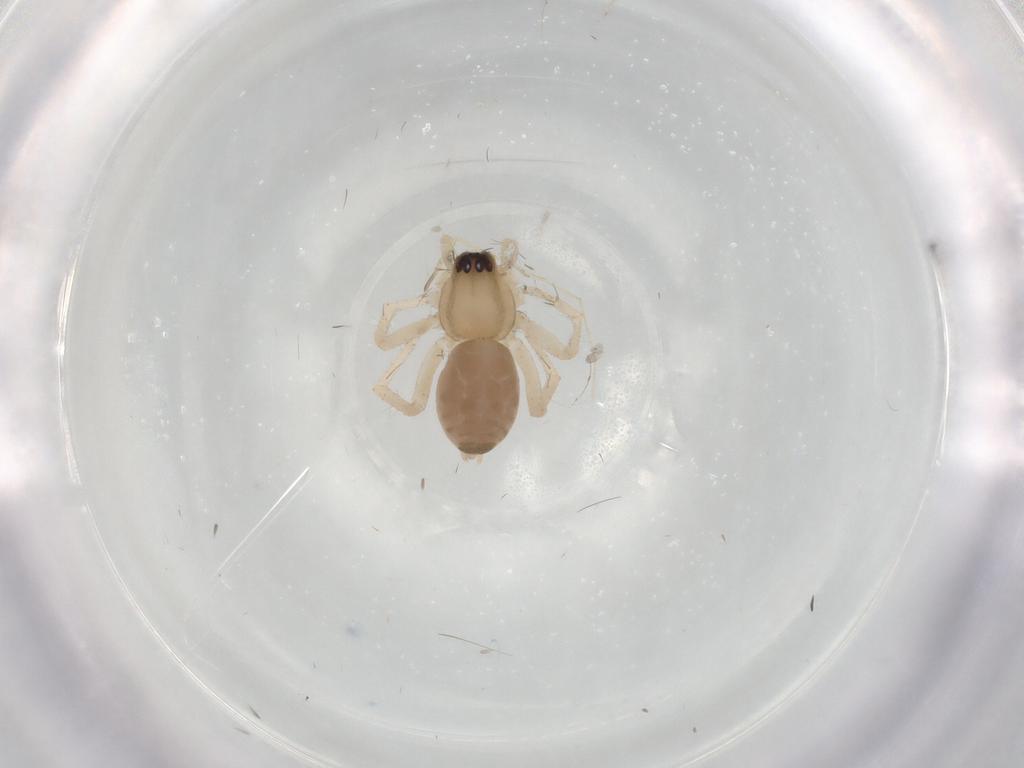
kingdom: Animalia
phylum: Arthropoda
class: Arachnida
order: Araneae
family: Anyphaenidae
